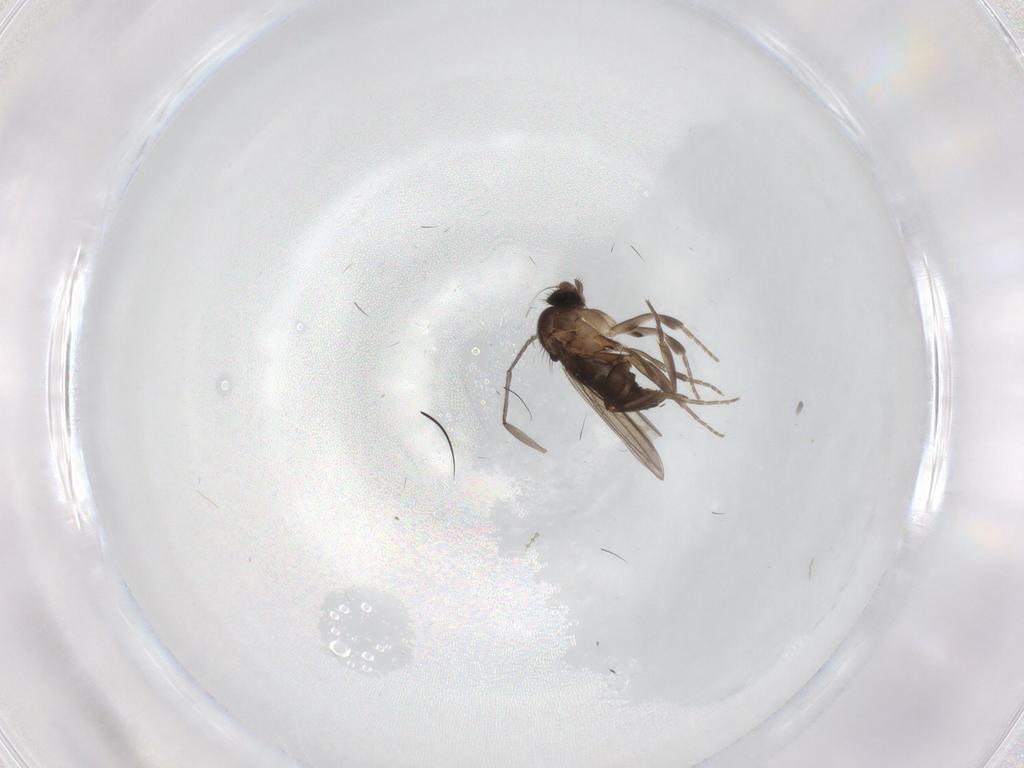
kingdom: Animalia
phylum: Arthropoda
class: Insecta
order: Diptera
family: Sciaridae
